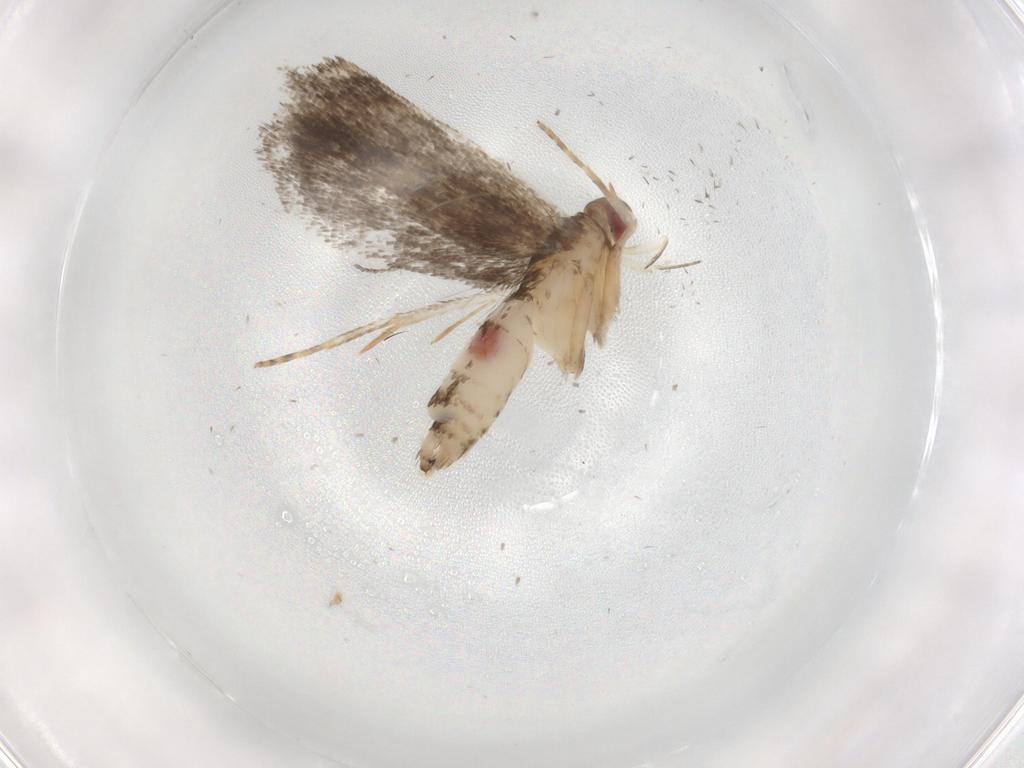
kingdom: Animalia
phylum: Arthropoda
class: Insecta
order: Lepidoptera
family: Gelechiidae
